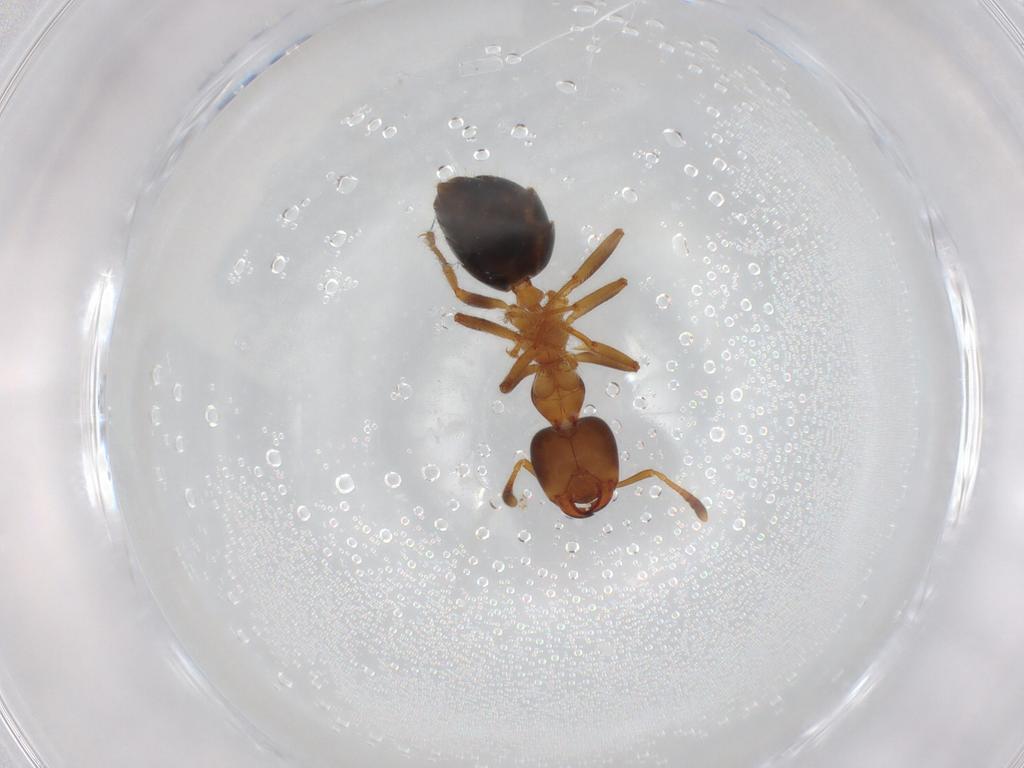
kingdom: Animalia
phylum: Arthropoda
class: Insecta
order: Hymenoptera
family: Formicidae
